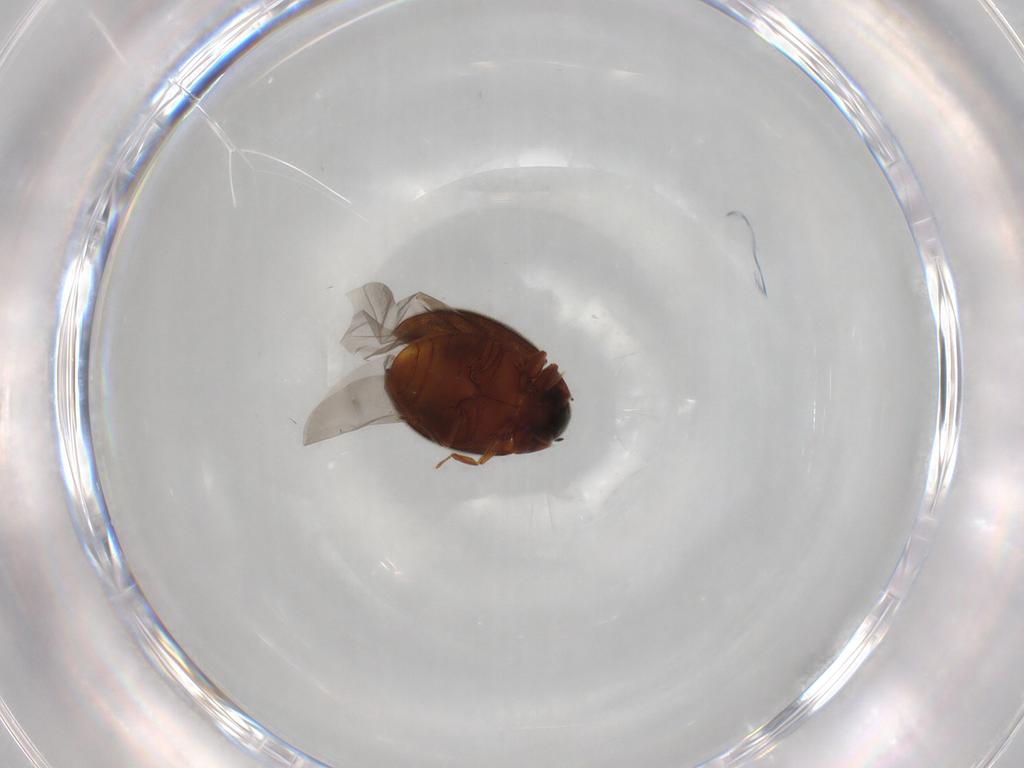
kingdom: Animalia
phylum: Arthropoda
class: Insecta
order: Coleoptera
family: Limnichidae
